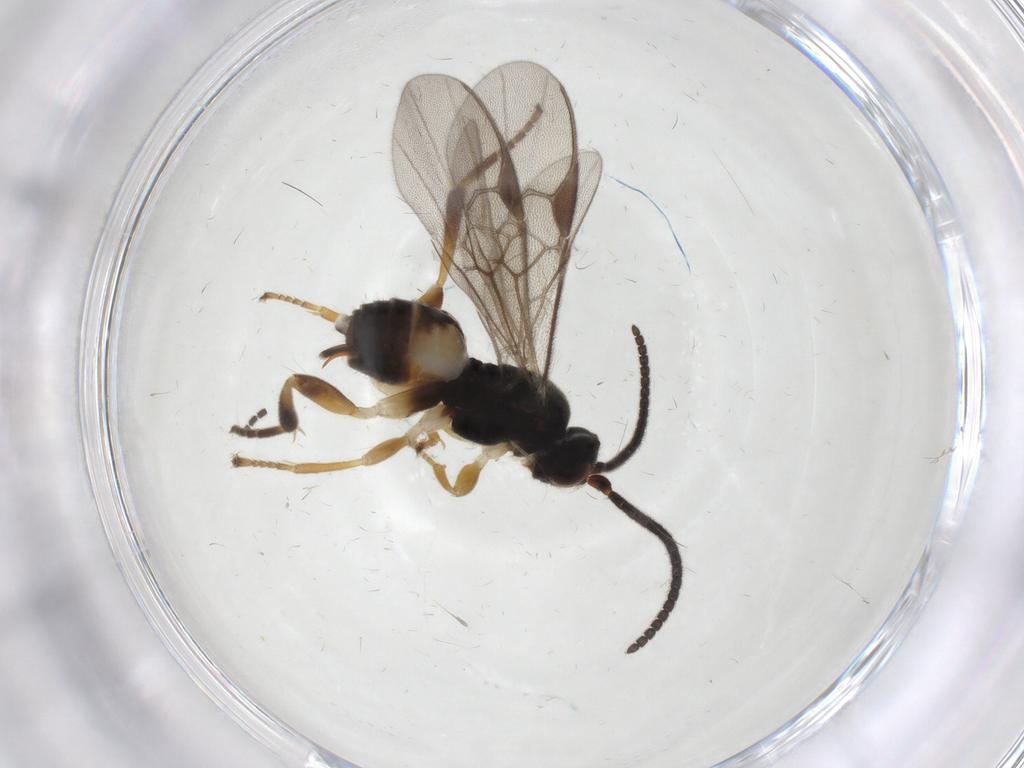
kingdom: Animalia
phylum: Arthropoda
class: Insecta
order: Hymenoptera
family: Braconidae
